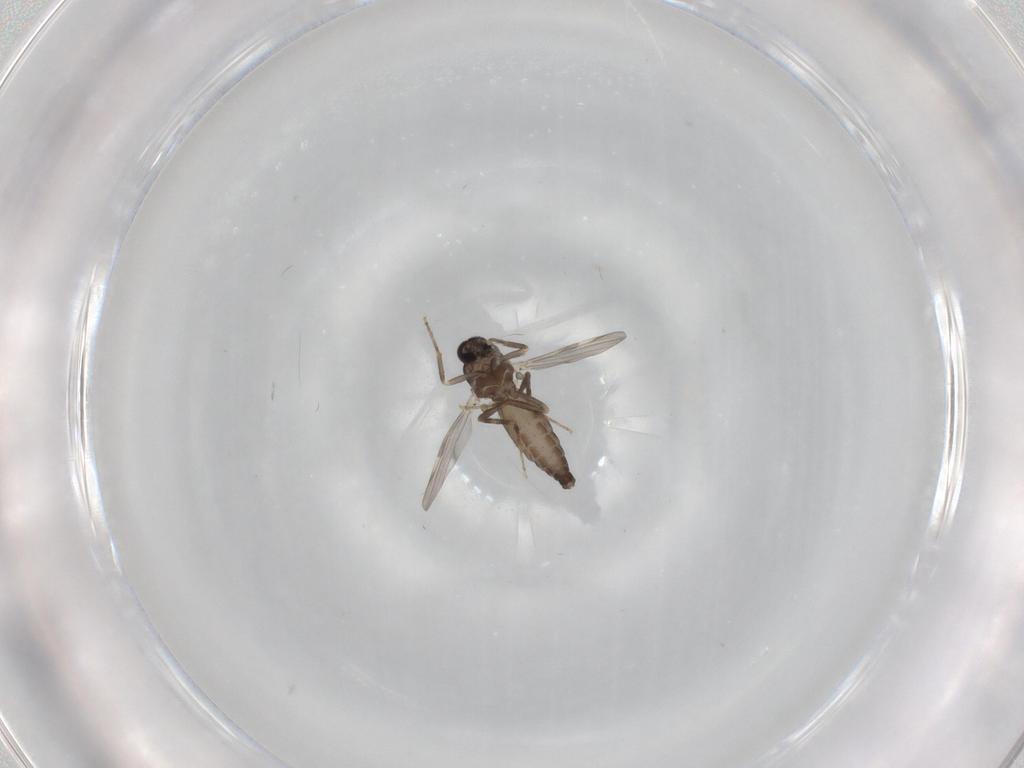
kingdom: Animalia
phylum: Arthropoda
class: Insecta
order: Diptera
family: Ceratopogonidae
